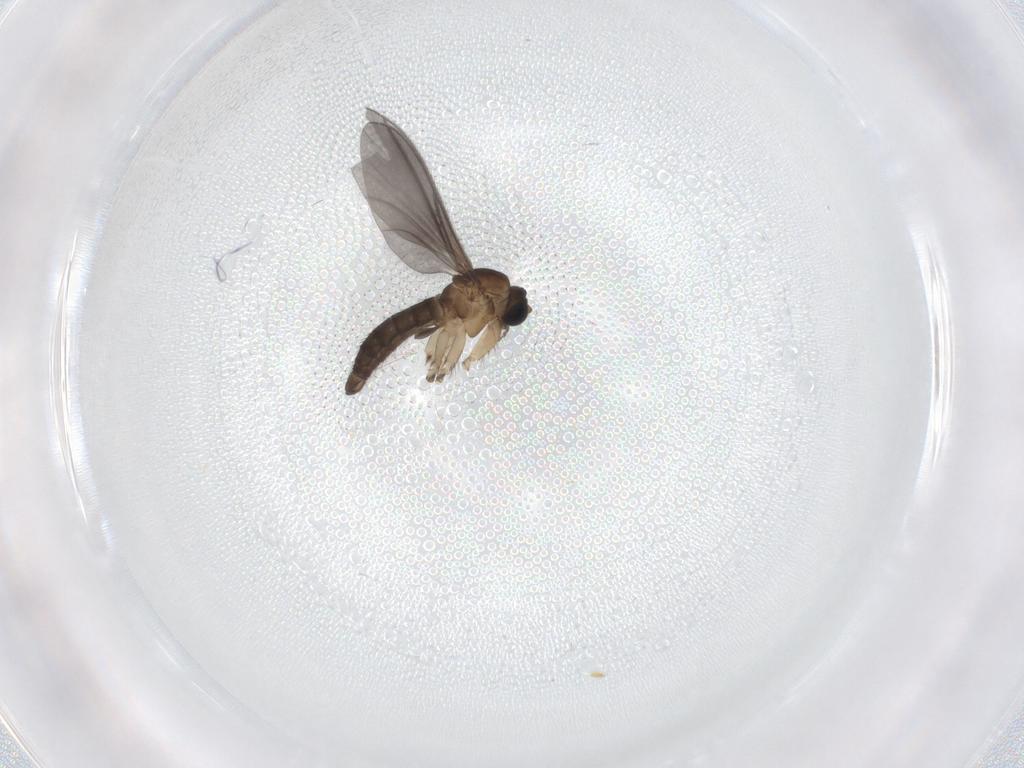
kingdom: Animalia
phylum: Arthropoda
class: Insecta
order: Diptera
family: Sciaridae
